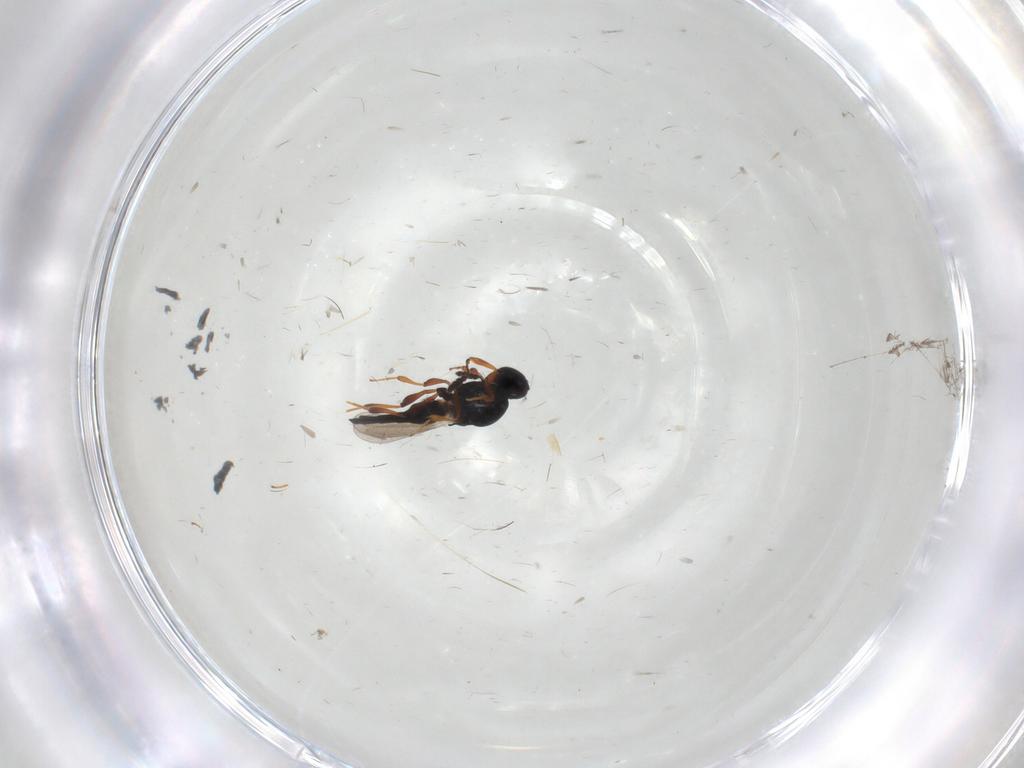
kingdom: Animalia
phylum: Arthropoda
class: Insecta
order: Hymenoptera
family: Platygastridae
